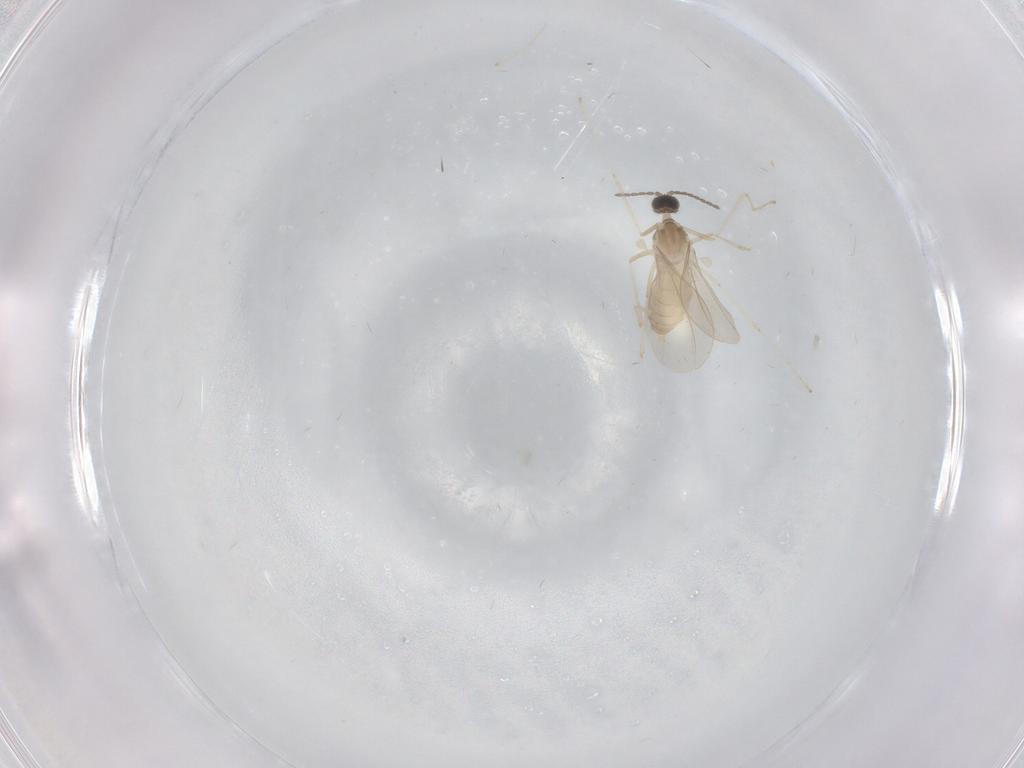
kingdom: Animalia
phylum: Arthropoda
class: Insecta
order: Diptera
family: Cecidomyiidae
